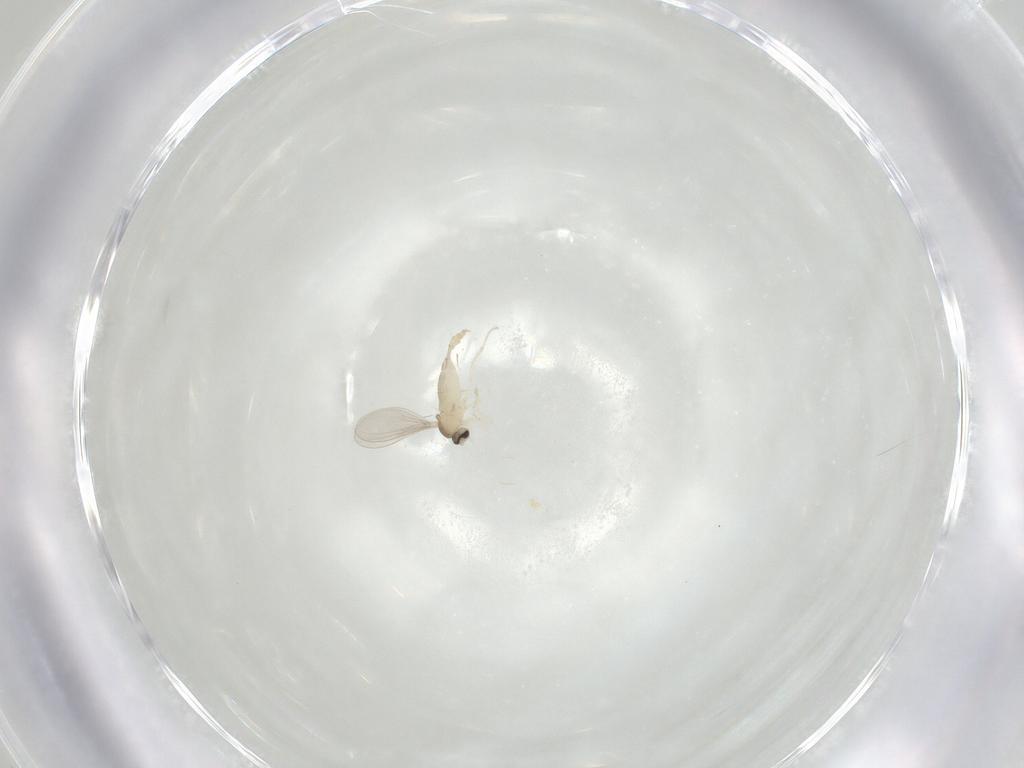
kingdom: Animalia
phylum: Arthropoda
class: Insecta
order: Diptera
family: Cecidomyiidae
